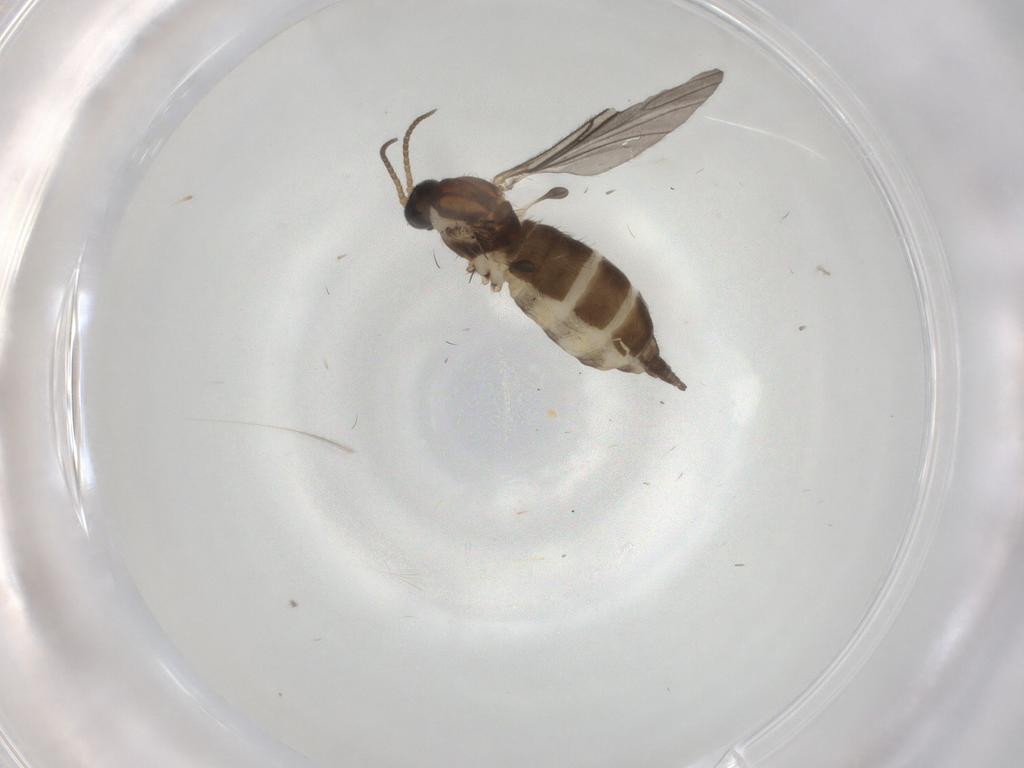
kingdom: Animalia
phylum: Arthropoda
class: Insecta
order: Diptera
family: Sciaridae
